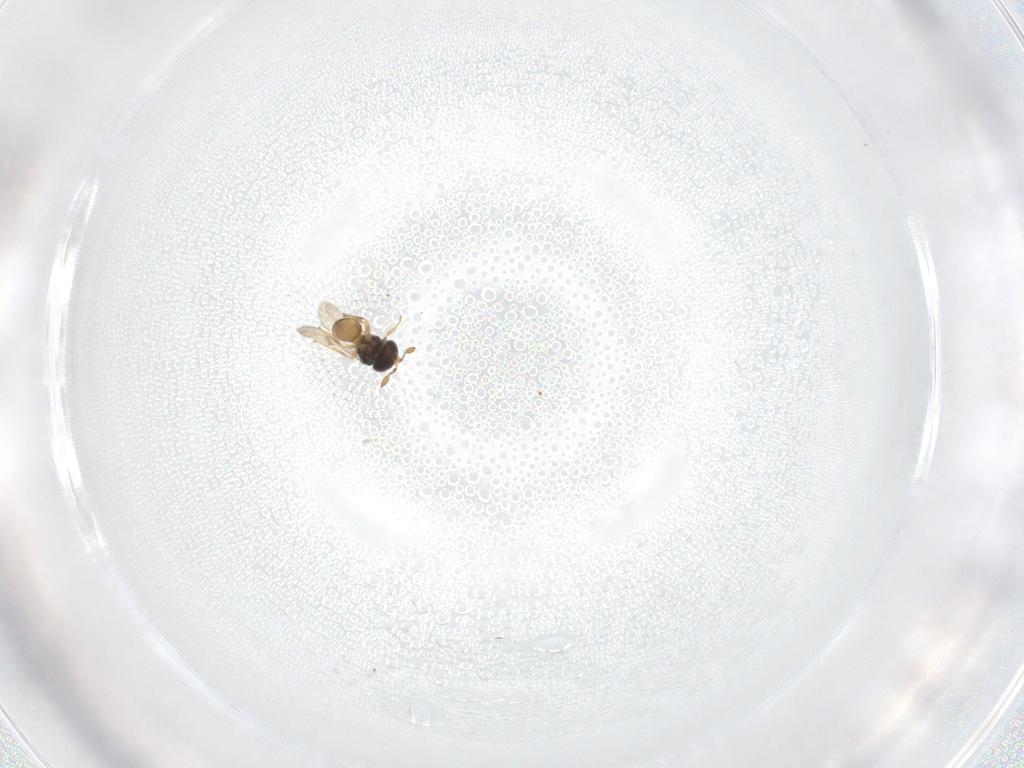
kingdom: Animalia
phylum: Arthropoda
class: Insecta
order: Hymenoptera
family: Scelionidae
